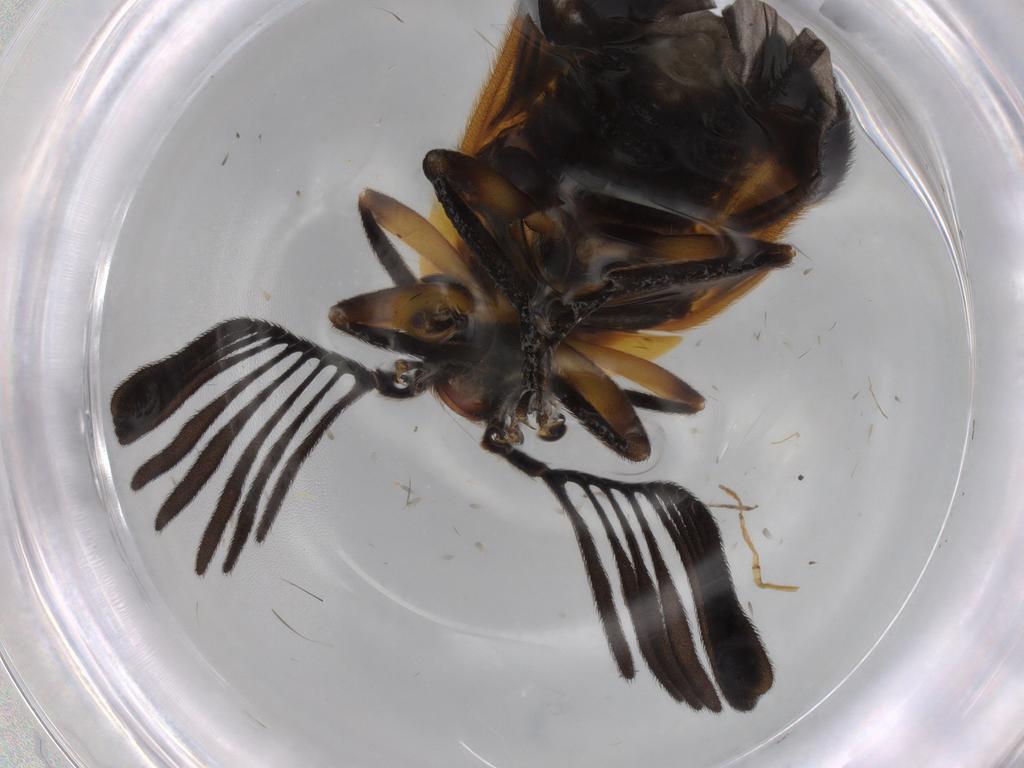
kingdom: Animalia
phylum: Arthropoda
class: Insecta
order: Coleoptera
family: Lampyridae
